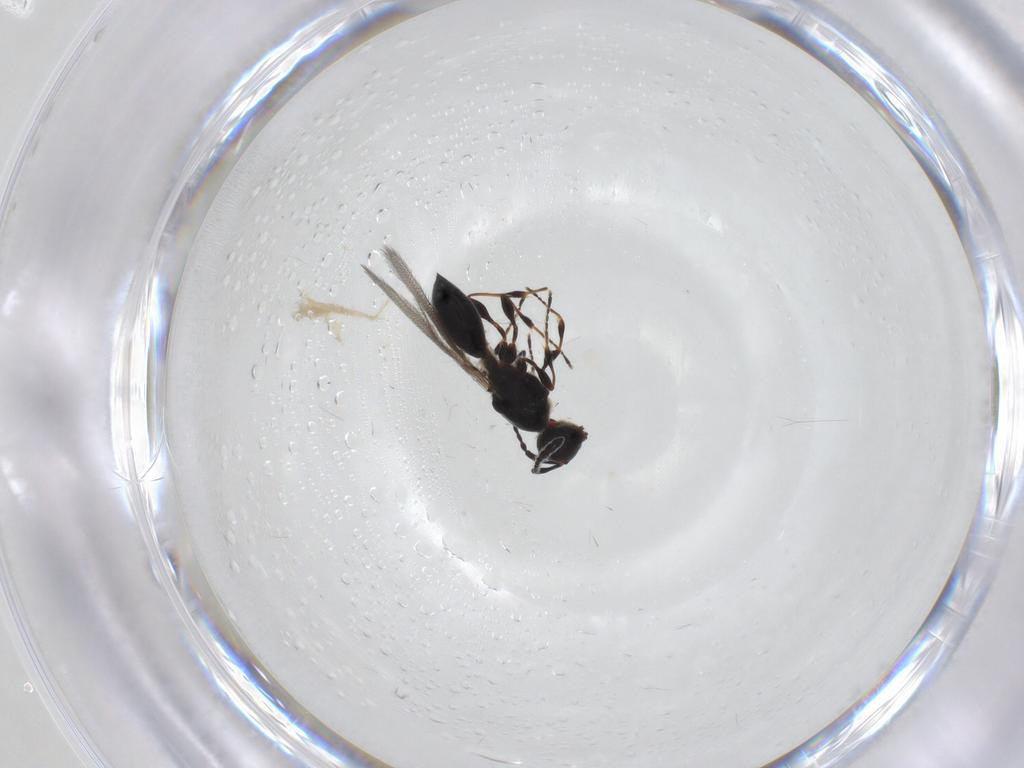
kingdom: Animalia
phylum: Arthropoda
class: Insecta
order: Hymenoptera
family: Diapriidae
